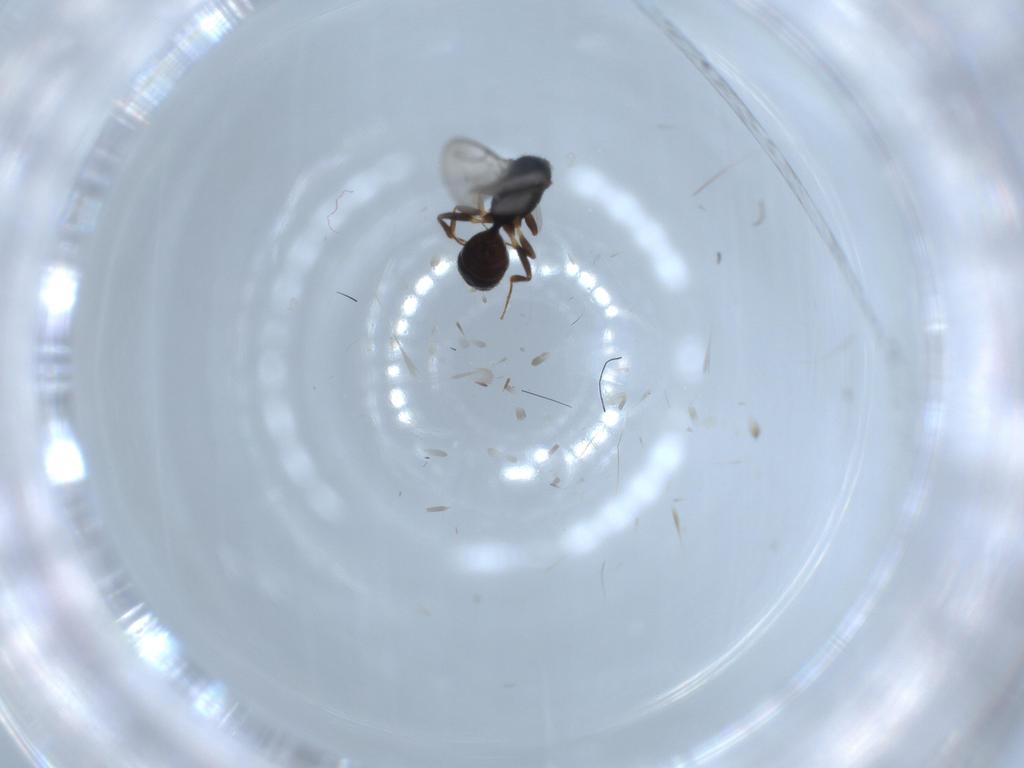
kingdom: Animalia
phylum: Arthropoda
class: Insecta
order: Hymenoptera
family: Bethylidae
